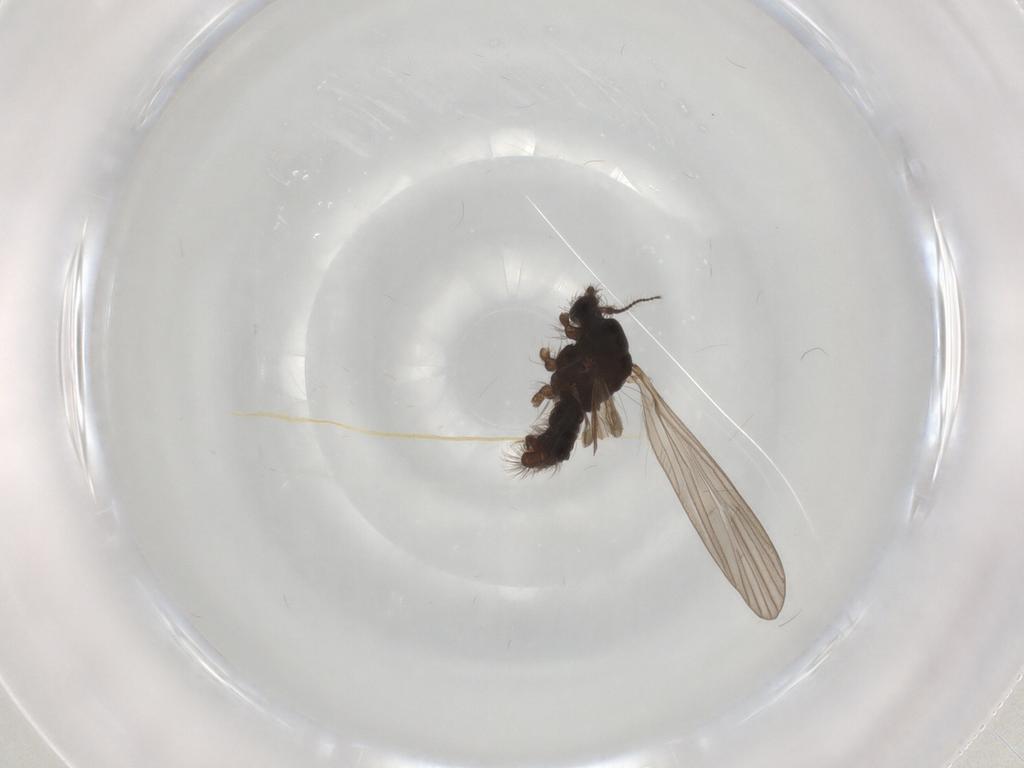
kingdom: Animalia
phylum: Arthropoda
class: Insecta
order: Diptera
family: Limoniidae
